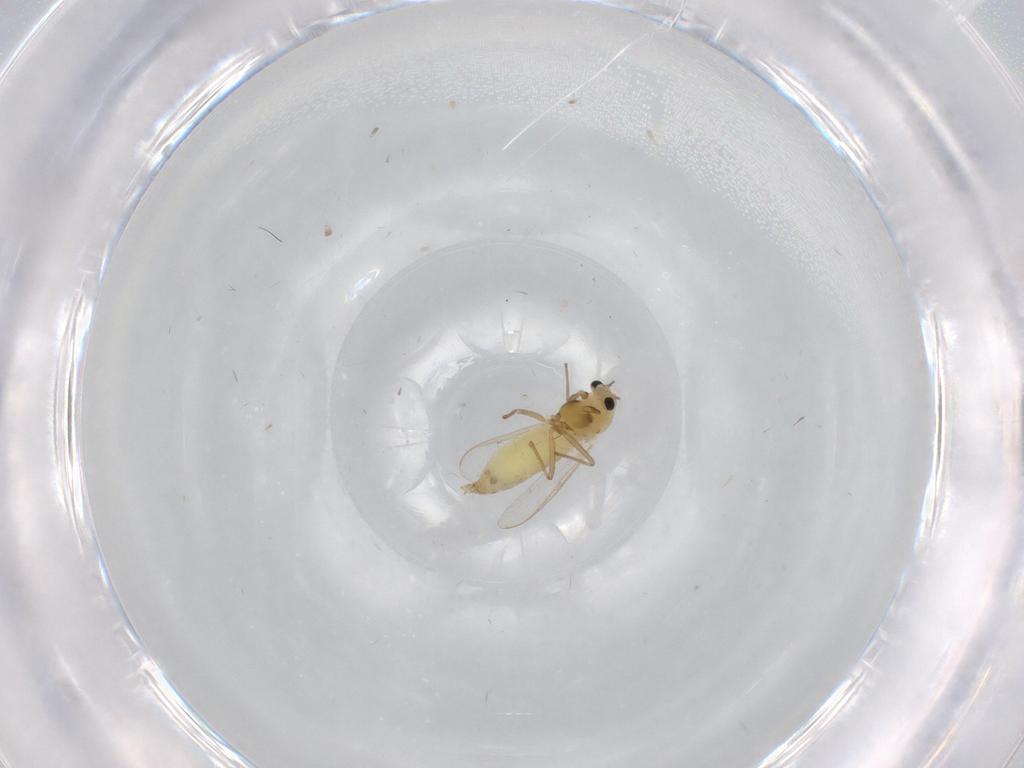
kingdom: Animalia
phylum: Arthropoda
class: Insecta
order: Diptera
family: Chironomidae
